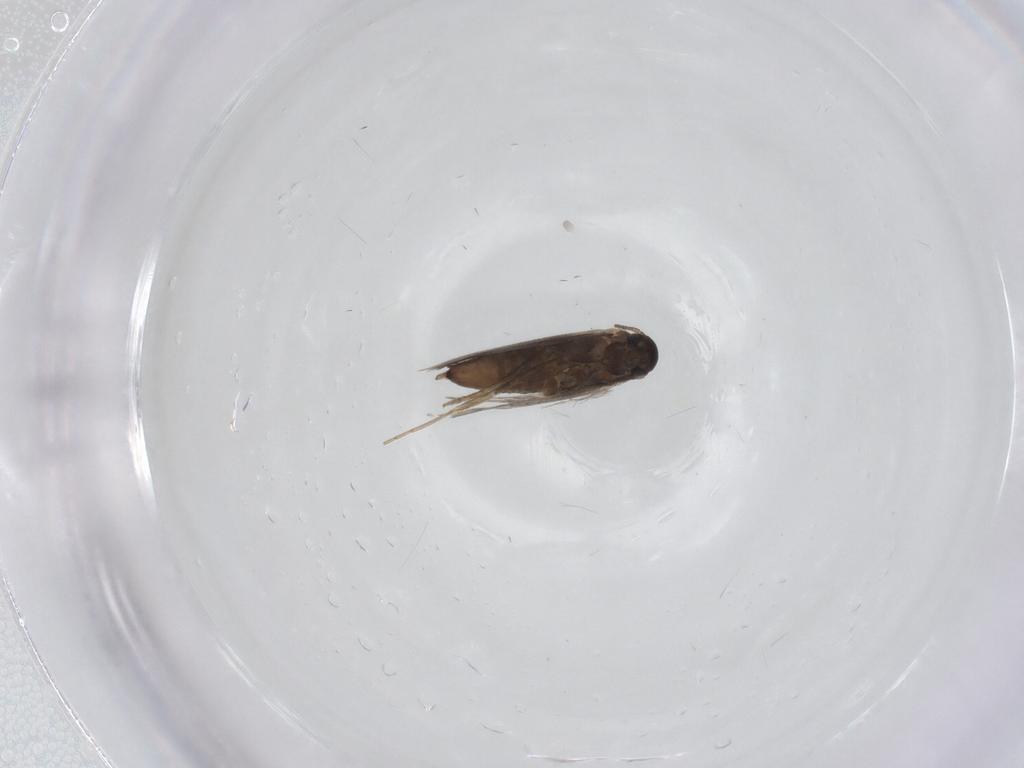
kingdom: Animalia
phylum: Arthropoda
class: Insecta
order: Lepidoptera
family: Heliozelidae
